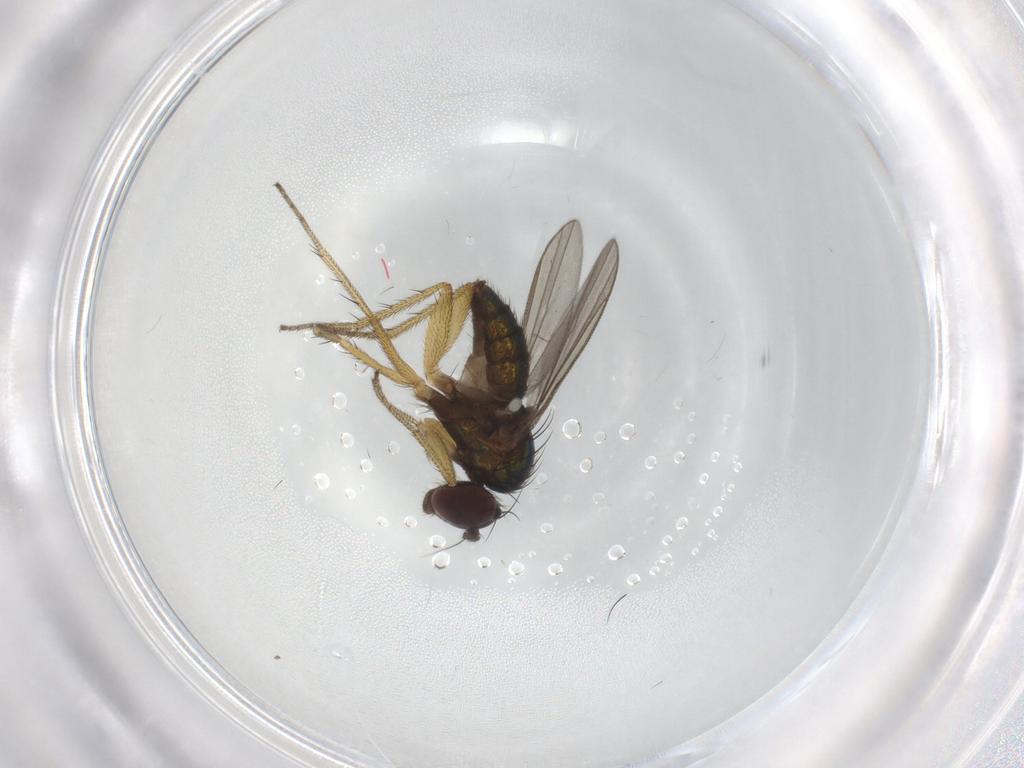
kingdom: Animalia
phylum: Arthropoda
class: Insecta
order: Diptera
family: Dolichopodidae
